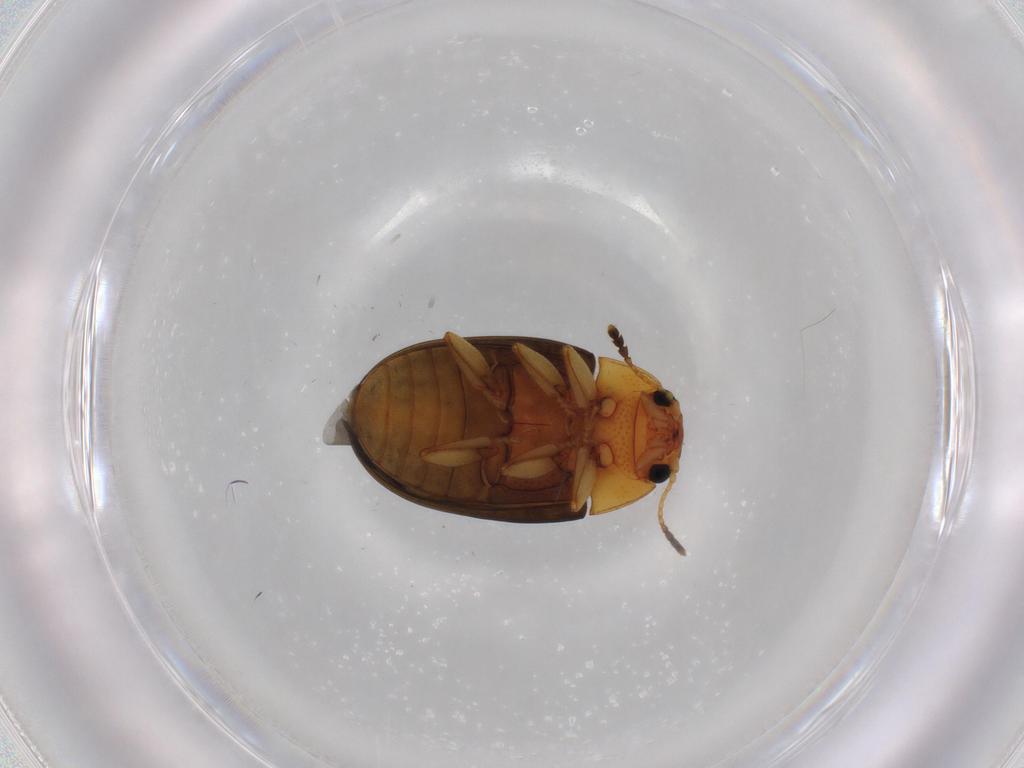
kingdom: Animalia
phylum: Arthropoda
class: Insecta
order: Coleoptera
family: Erotylidae
